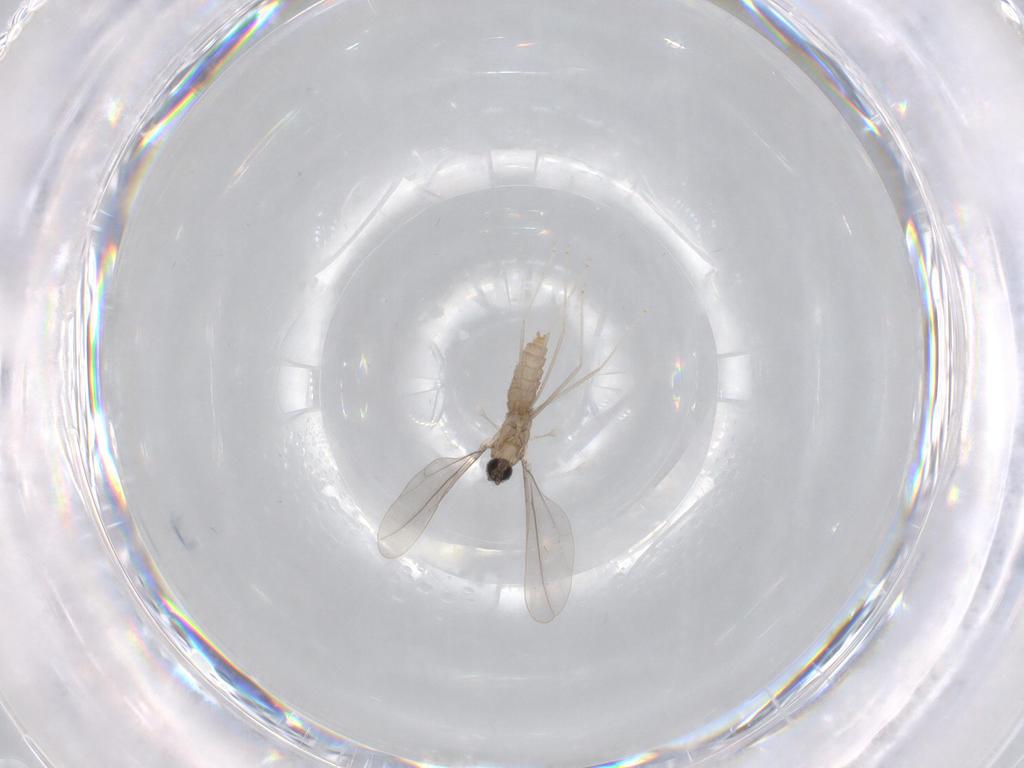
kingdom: Animalia
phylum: Arthropoda
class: Insecta
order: Diptera
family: Cecidomyiidae
